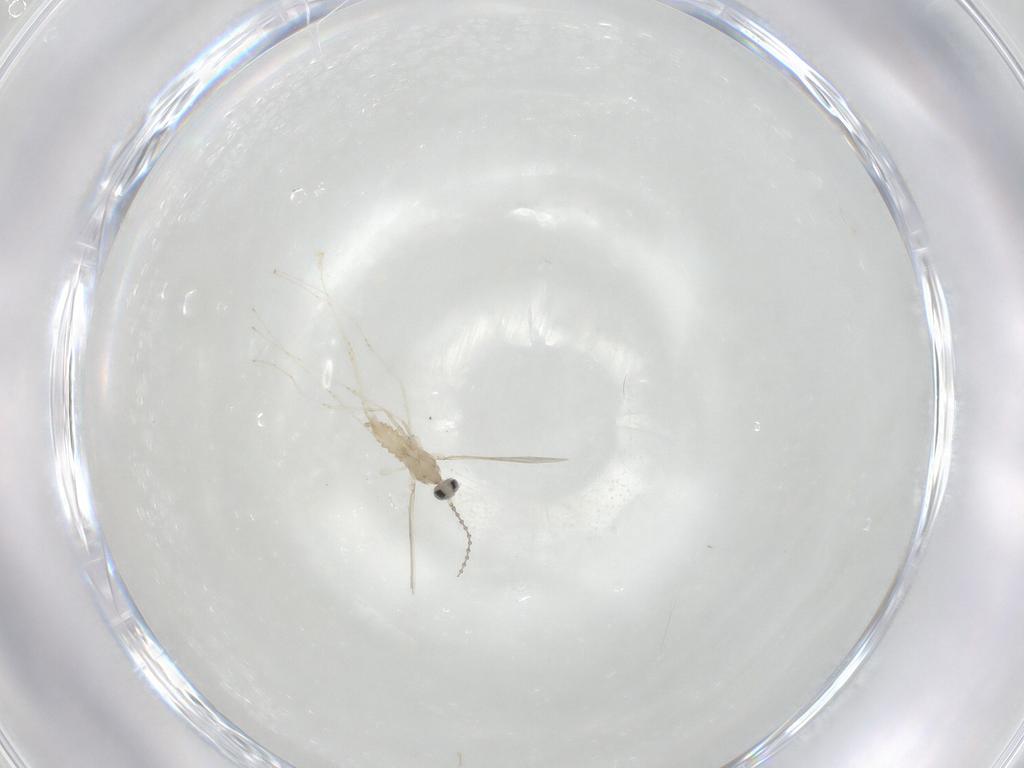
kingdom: Animalia
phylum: Arthropoda
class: Insecta
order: Diptera
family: Cecidomyiidae
